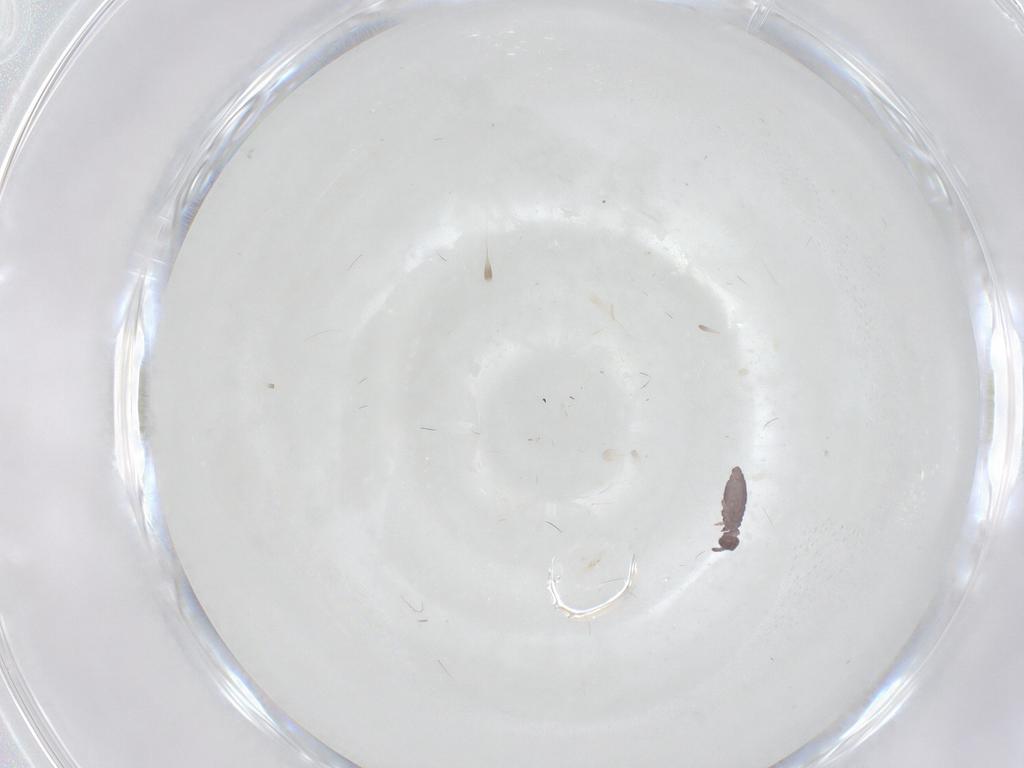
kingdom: Animalia
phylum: Arthropoda
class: Collembola
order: Poduromorpha
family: Hypogastruridae
